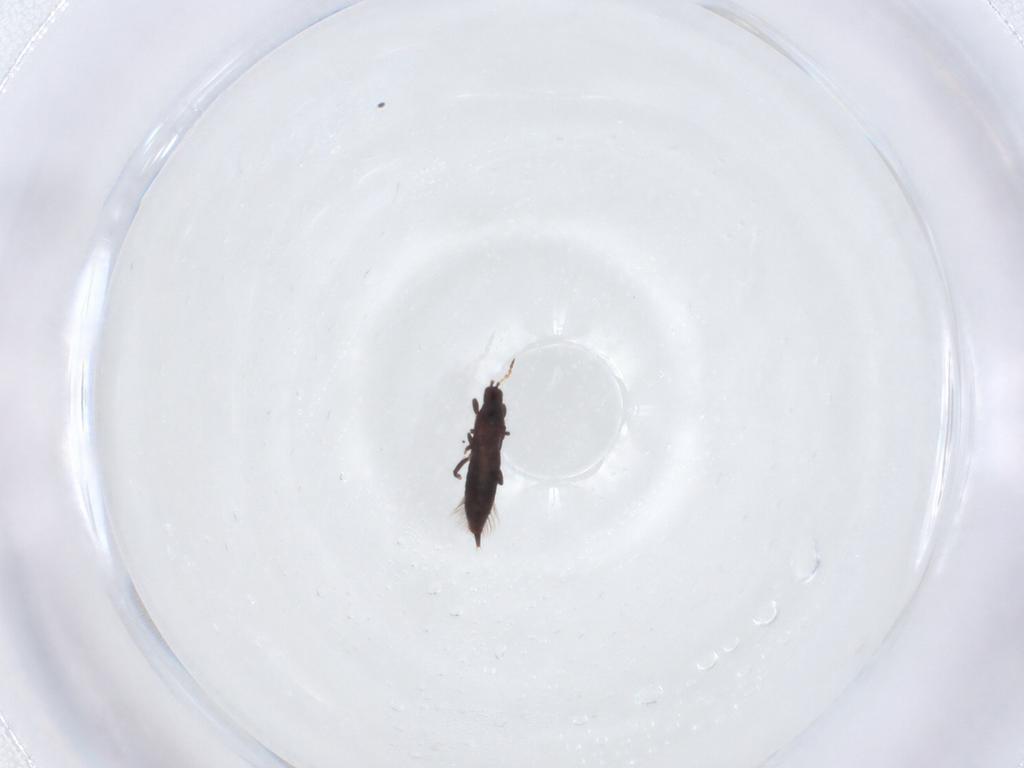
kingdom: Animalia
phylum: Arthropoda
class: Insecta
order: Thysanoptera
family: Phlaeothripidae
